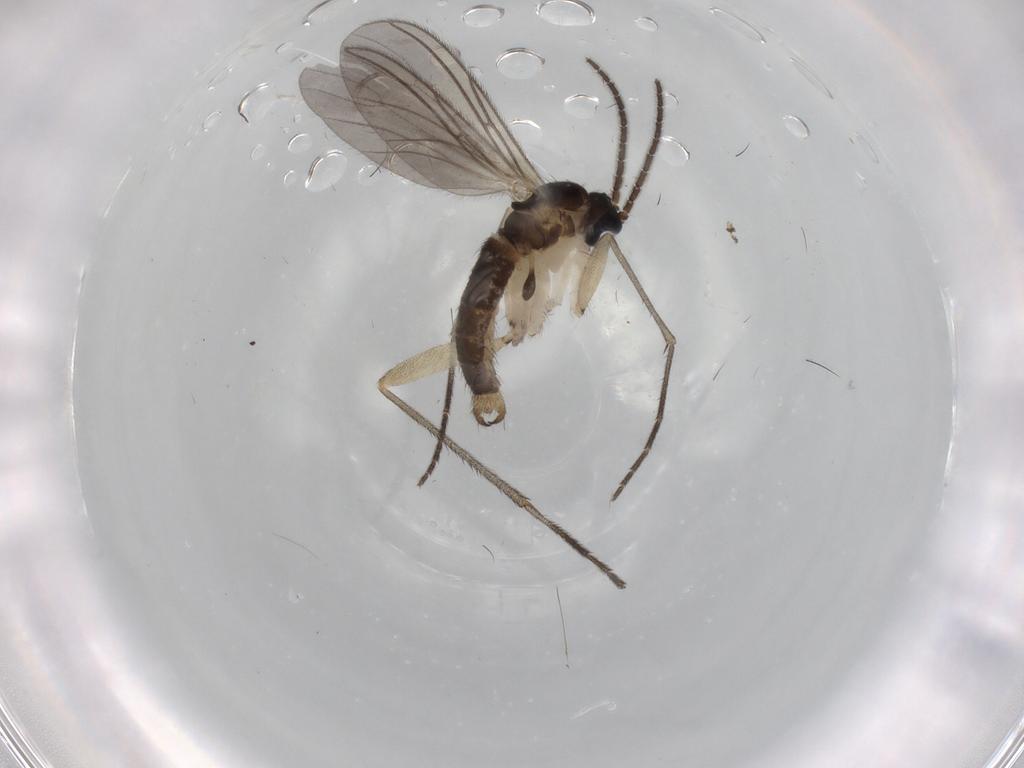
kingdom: Animalia
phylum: Arthropoda
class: Insecta
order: Diptera
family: Sciaridae
